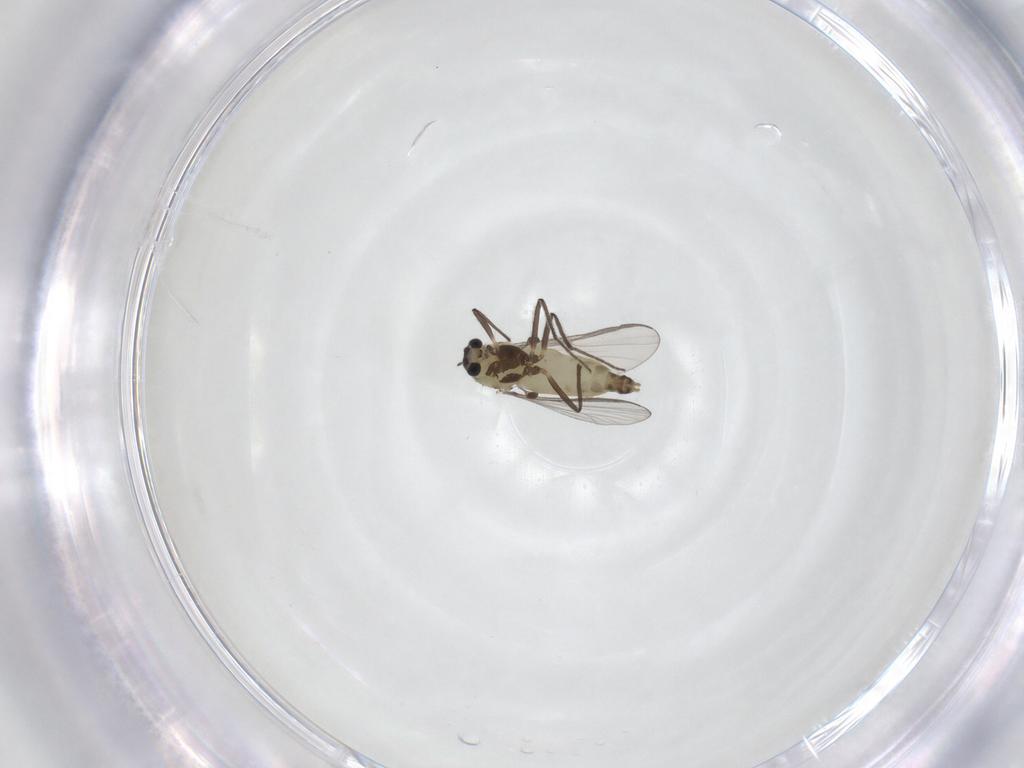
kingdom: Animalia
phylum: Arthropoda
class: Insecta
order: Diptera
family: Chironomidae
